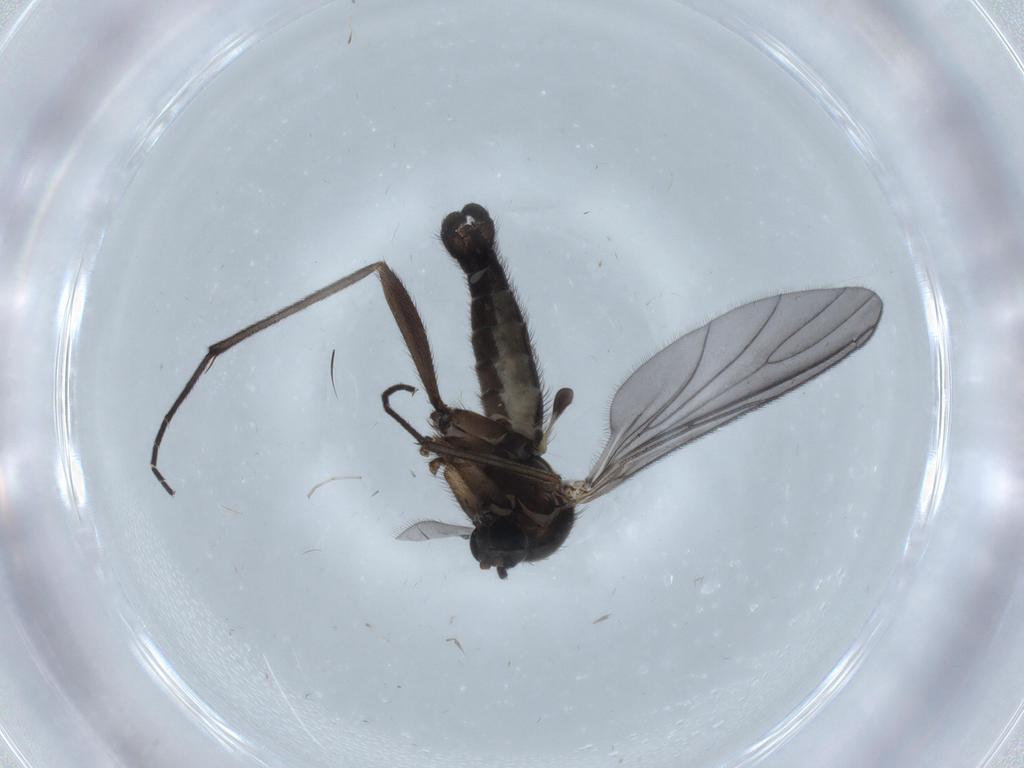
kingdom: Animalia
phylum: Arthropoda
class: Insecta
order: Diptera
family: Sciaridae
